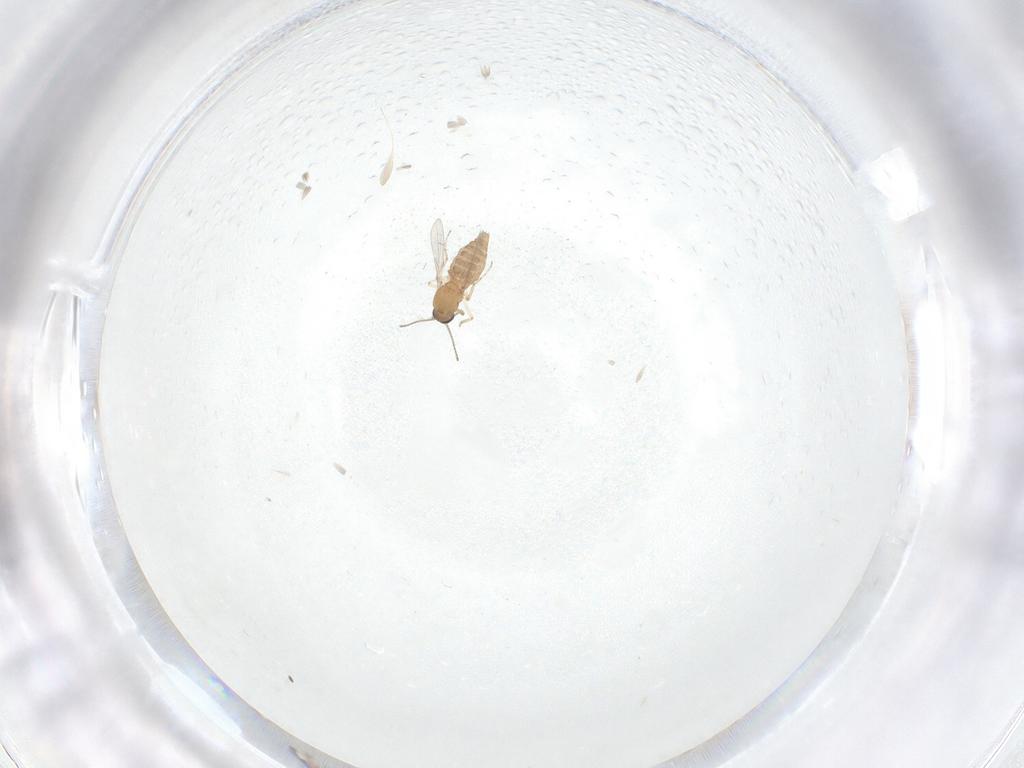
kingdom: Animalia
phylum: Arthropoda
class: Insecta
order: Diptera
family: Ceratopogonidae
